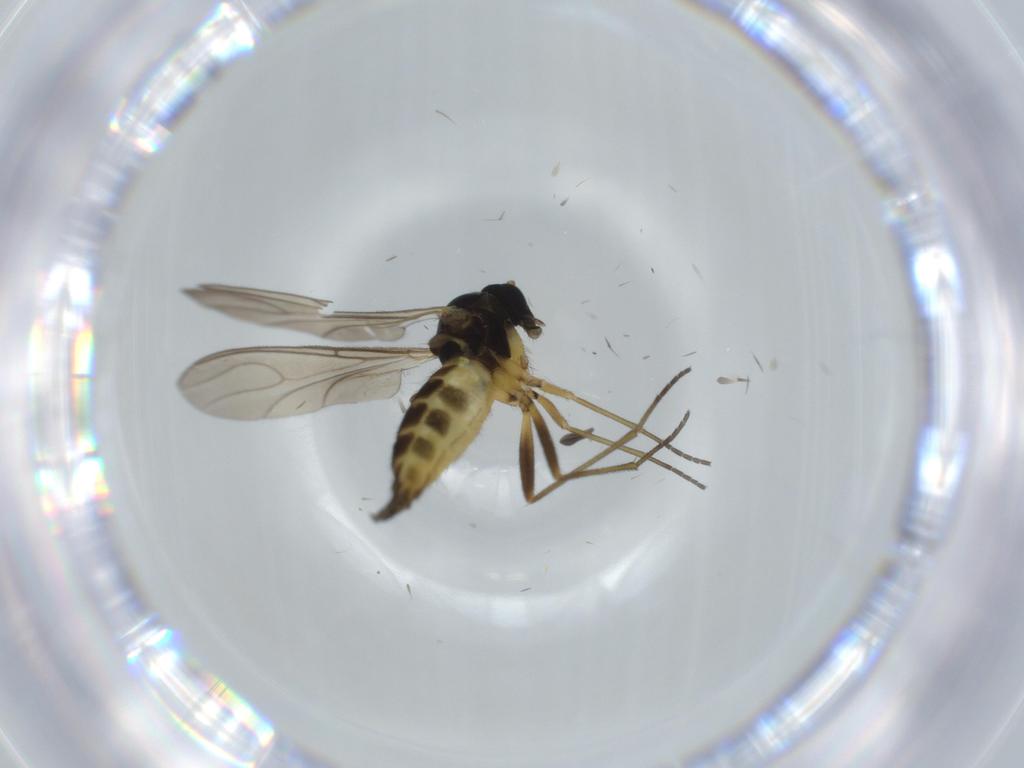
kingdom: Animalia
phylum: Arthropoda
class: Insecta
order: Diptera
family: Sciaridae
